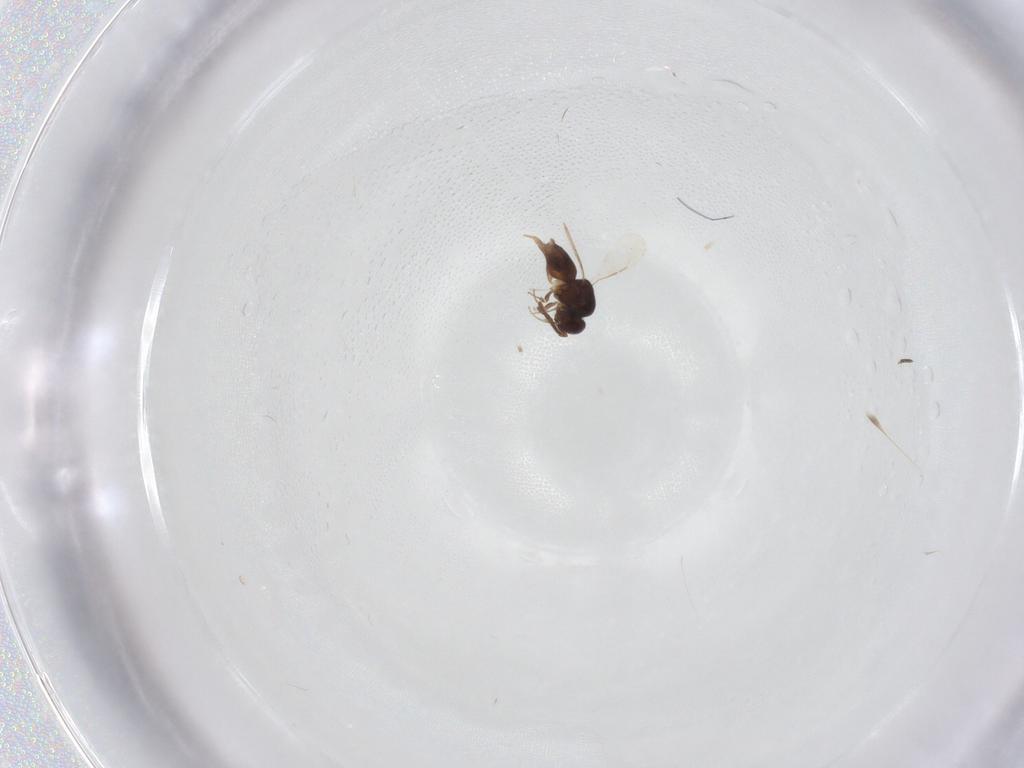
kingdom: Animalia
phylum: Arthropoda
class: Insecta
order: Hymenoptera
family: Ceraphronidae
